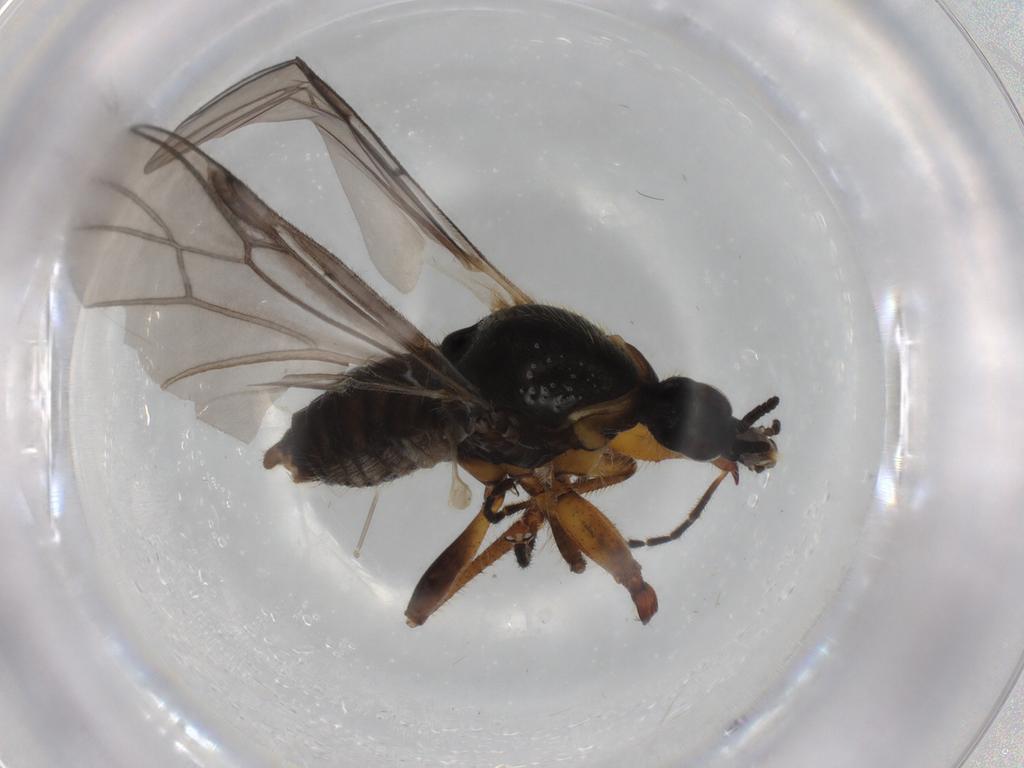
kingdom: Animalia
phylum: Arthropoda
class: Insecta
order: Diptera
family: Bibionidae
